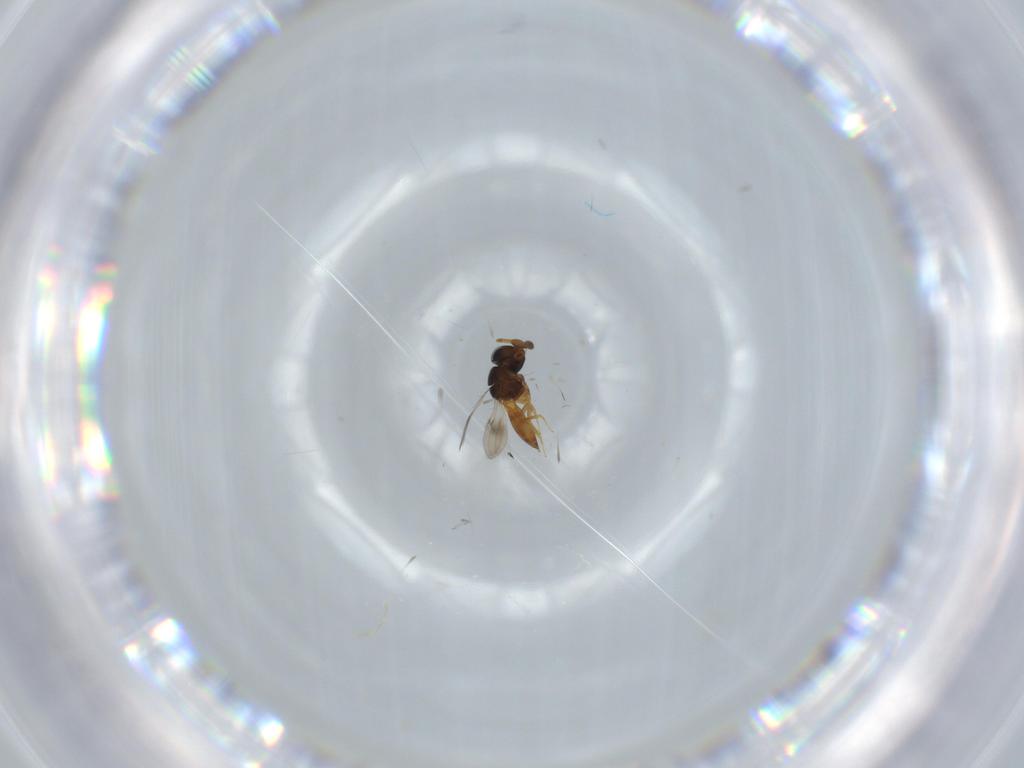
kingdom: Animalia
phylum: Arthropoda
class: Insecta
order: Hymenoptera
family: Scelionidae
